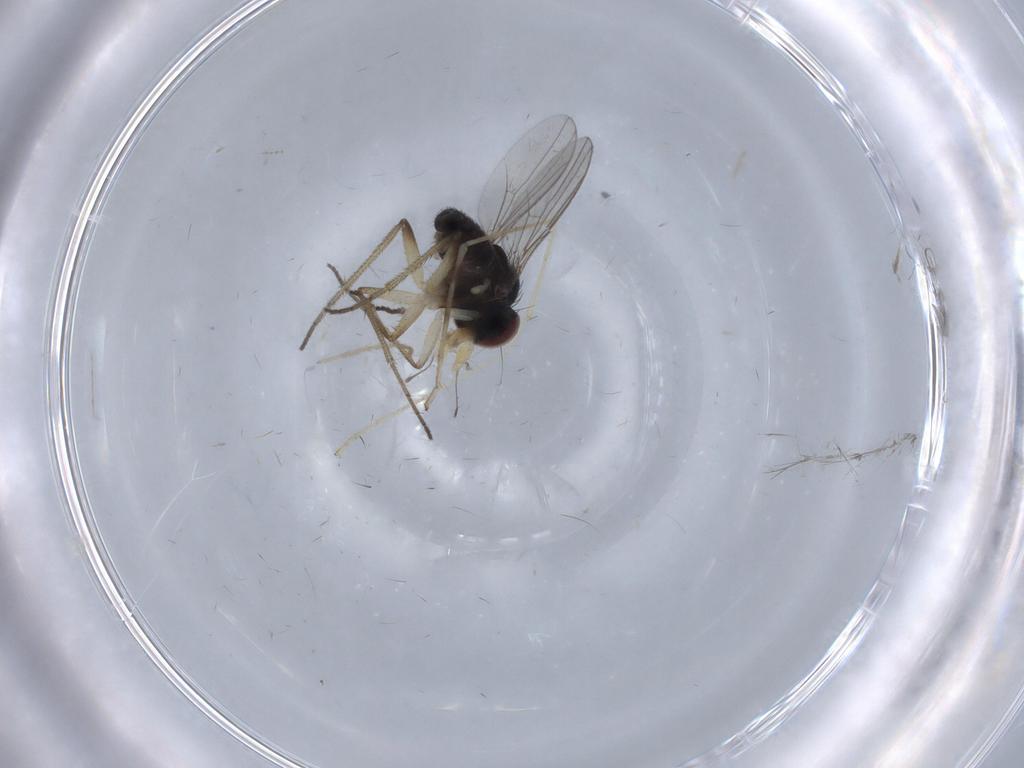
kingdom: Animalia
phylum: Arthropoda
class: Insecta
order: Diptera
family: Dolichopodidae
